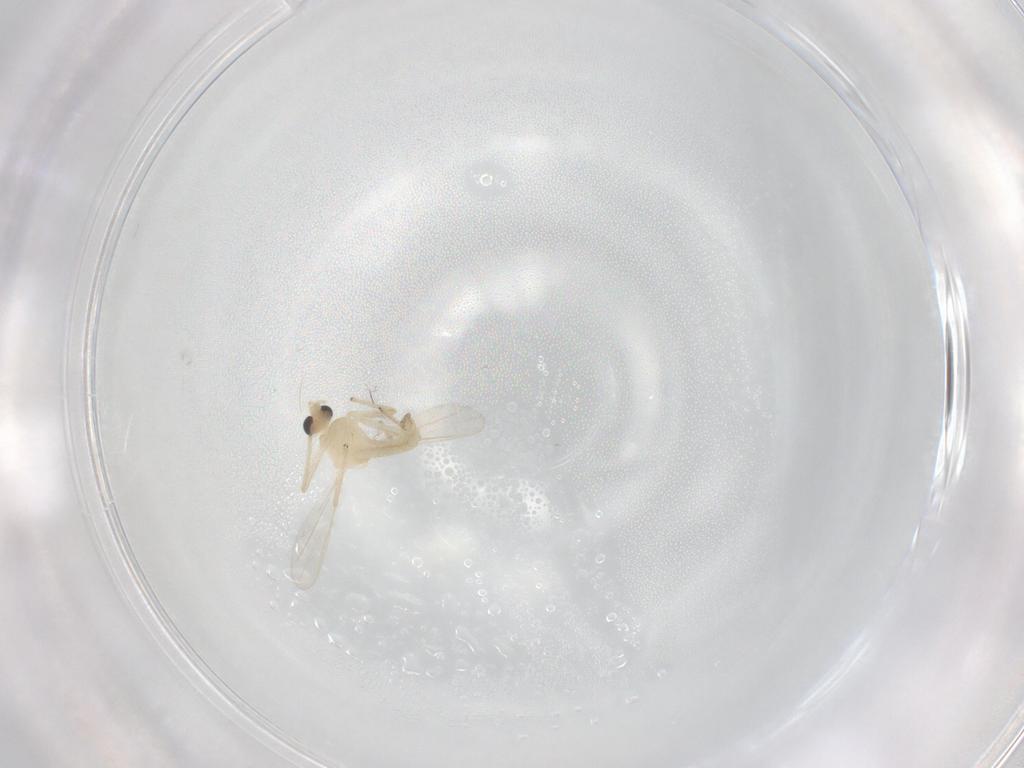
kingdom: Animalia
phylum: Arthropoda
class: Insecta
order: Diptera
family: Chironomidae
